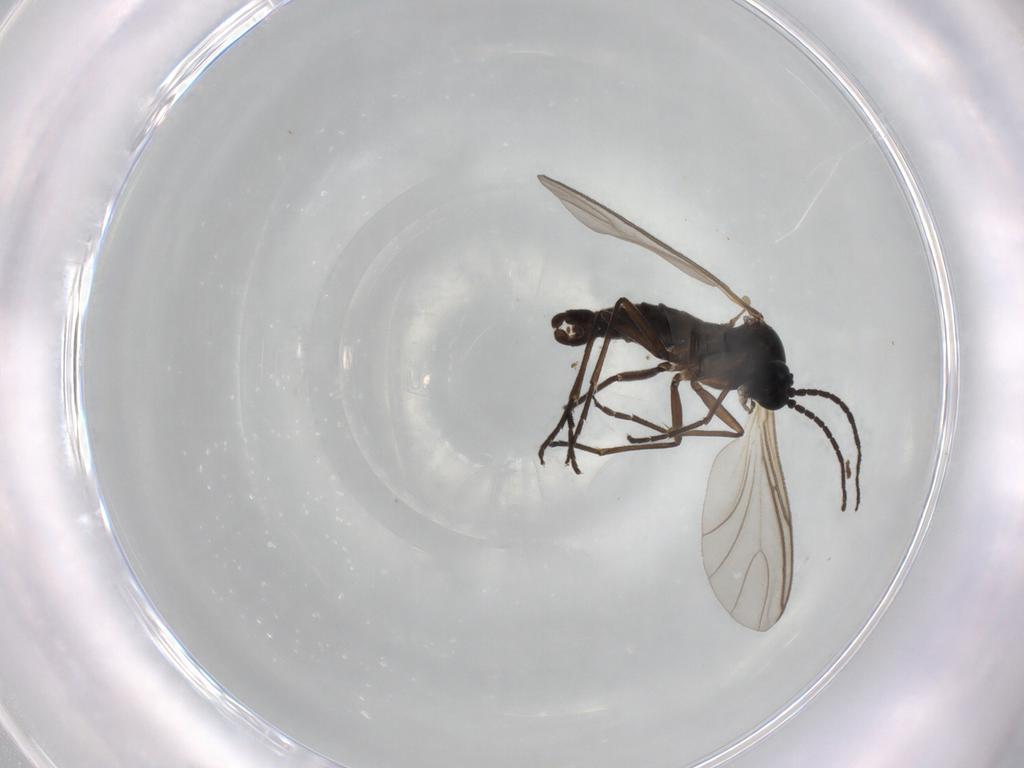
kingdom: Animalia
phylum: Arthropoda
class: Insecta
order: Diptera
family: Sciaridae
